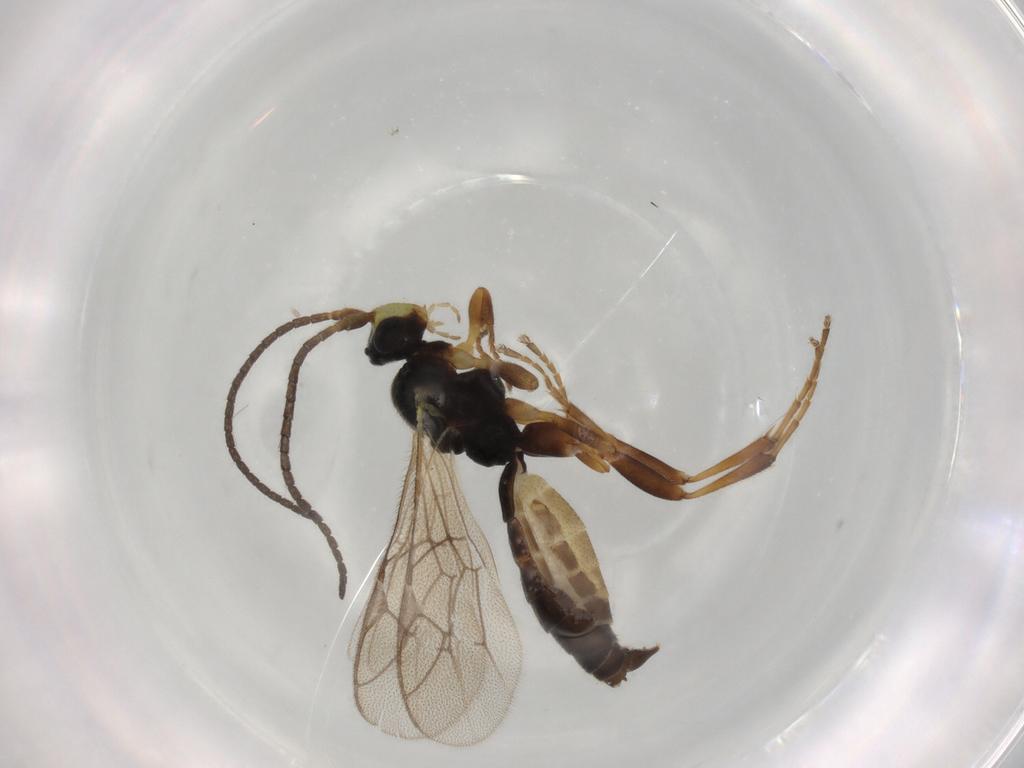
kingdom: Animalia
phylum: Arthropoda
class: Insecta
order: Hymenoptera
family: Ichneumonidae
